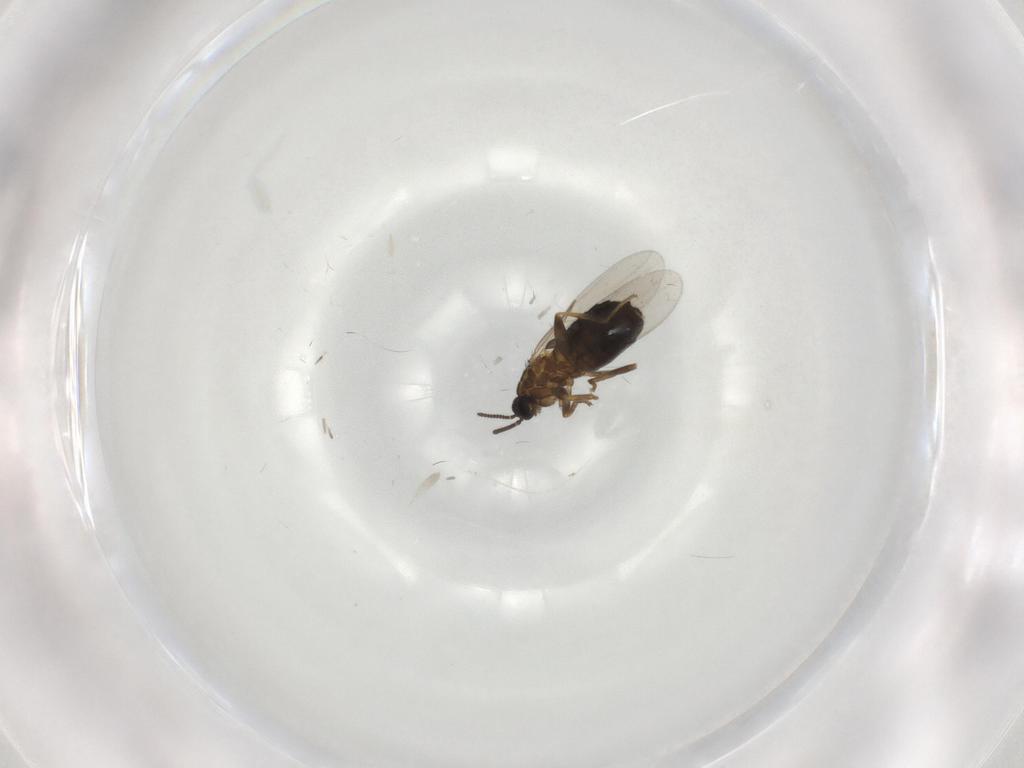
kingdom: Animalia
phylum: Arthropoda
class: Insecta
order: Diptera
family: Scatopsidae
